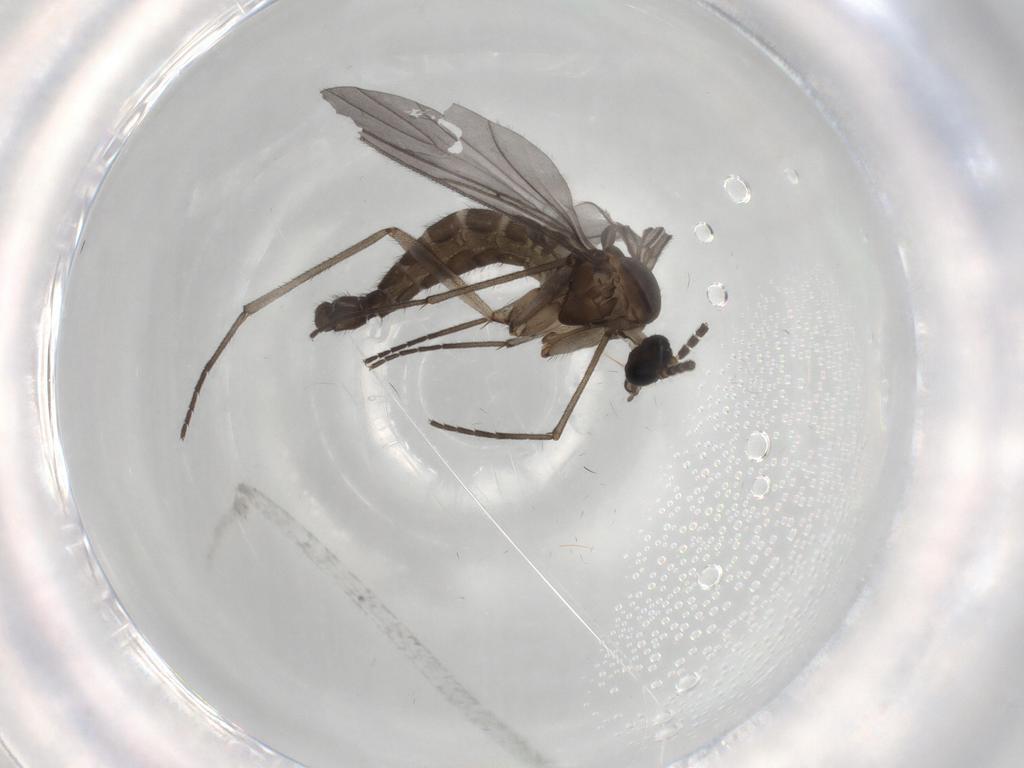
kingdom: Animalia
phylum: Arthropoda
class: Insecta
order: Diptera
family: Sciaridae
